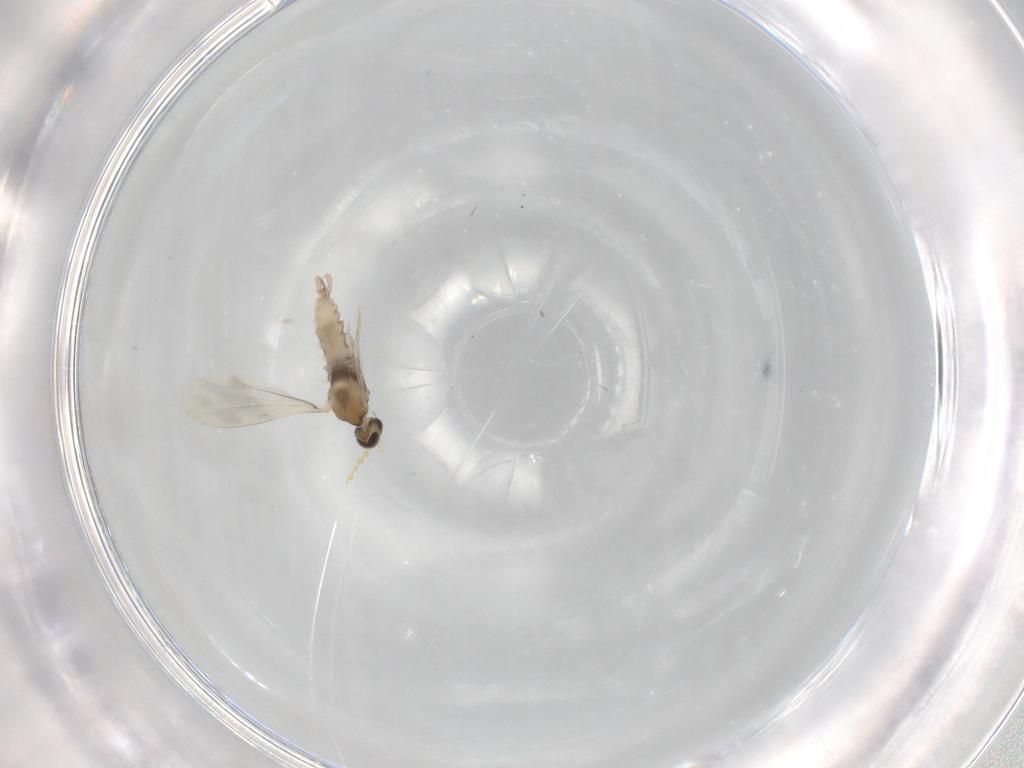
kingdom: Animalia
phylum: Arthropoda
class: Insecta
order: Diptera
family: Cecidomyiidae
